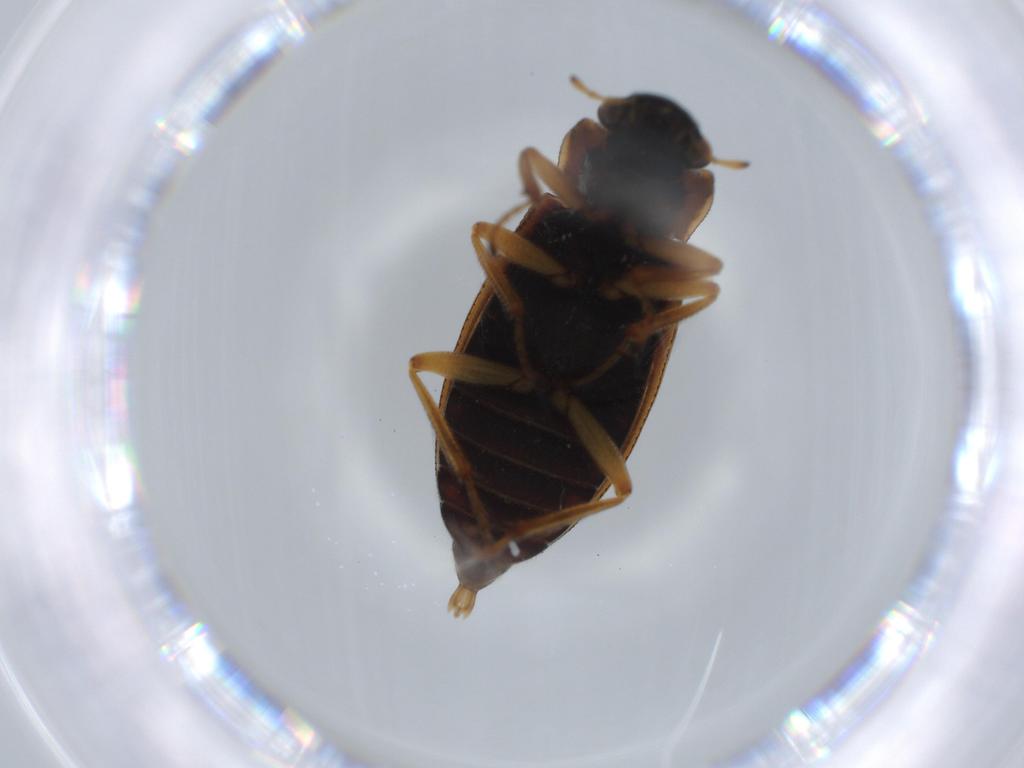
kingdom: Animalia
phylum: Arthropoda
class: Insecta
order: Coleoptera
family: Helophoridae
